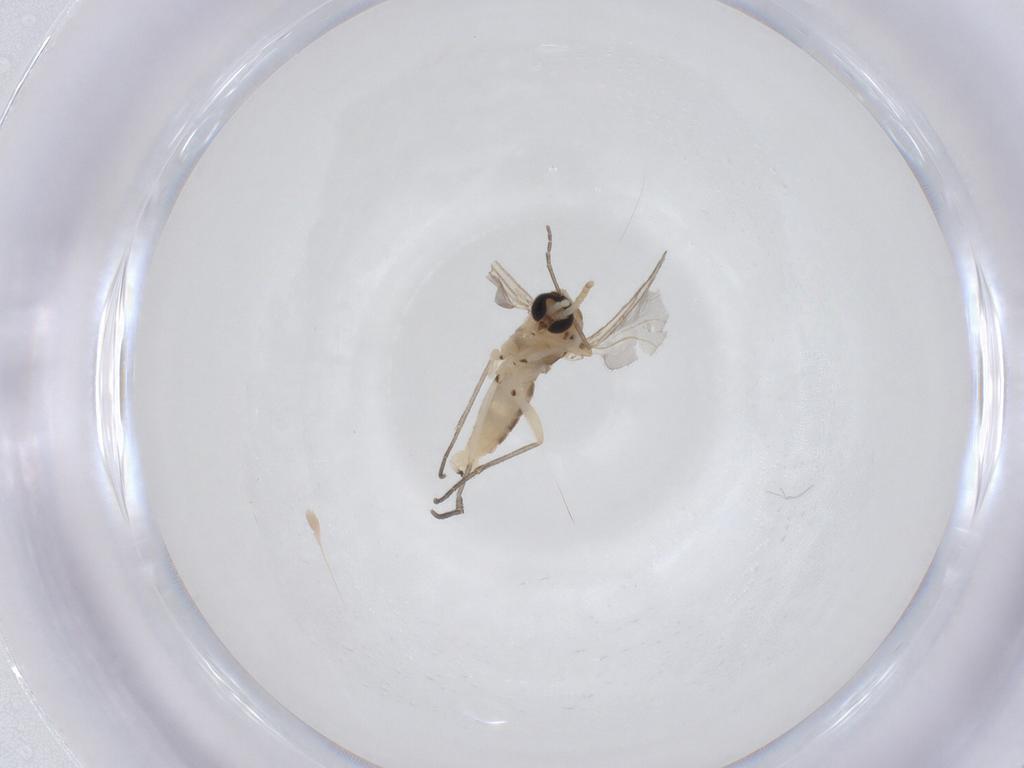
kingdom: Animalia
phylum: Arthropoda
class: Insecta
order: Diptera
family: Sciaridae
